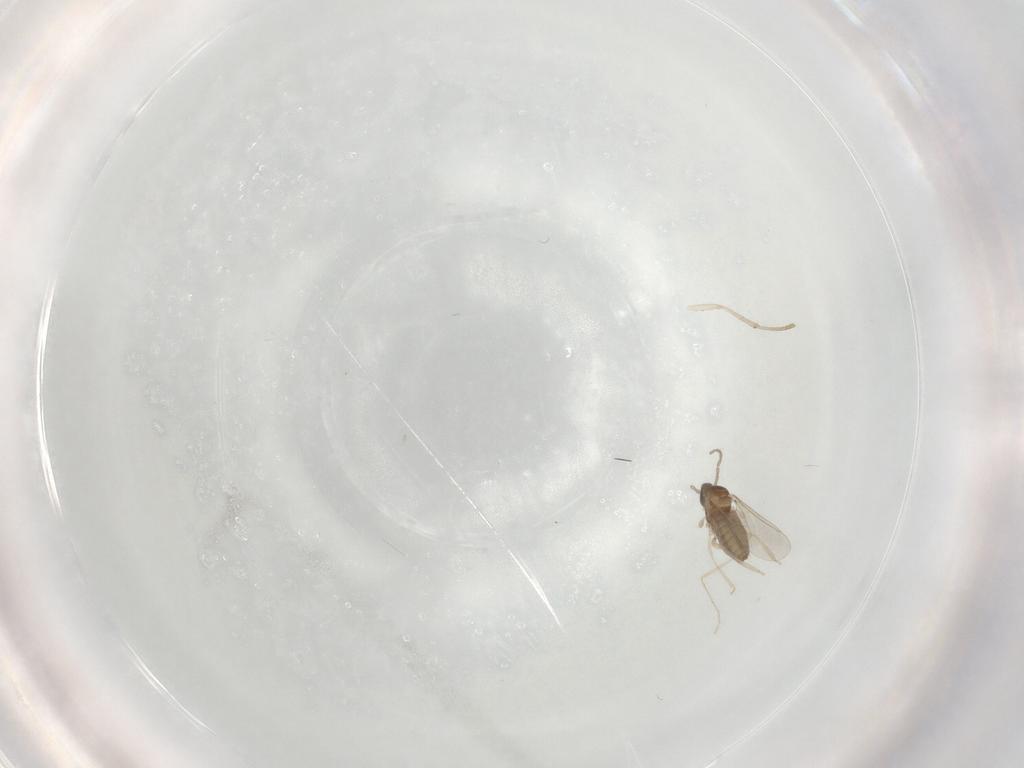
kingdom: Animalia
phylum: Arthropoda
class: Insecta
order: Diptera
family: Cecidomyiidae
